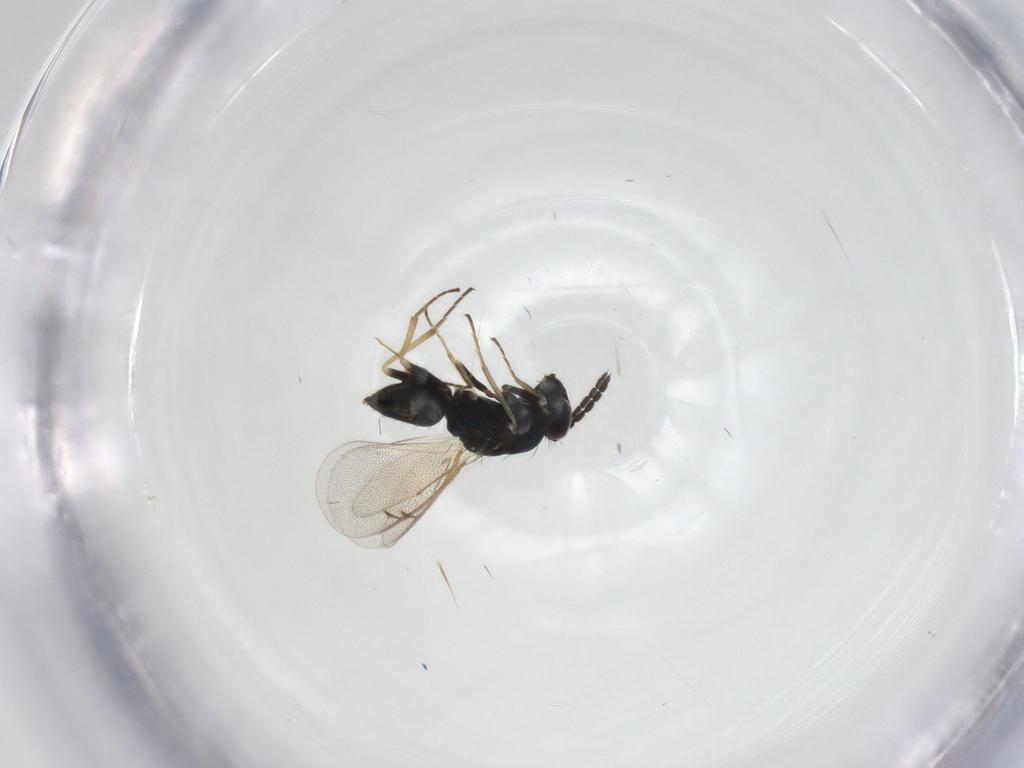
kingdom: Animalia
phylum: Arthropoda
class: Insecta
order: Hymenoptera
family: Eulophidae
